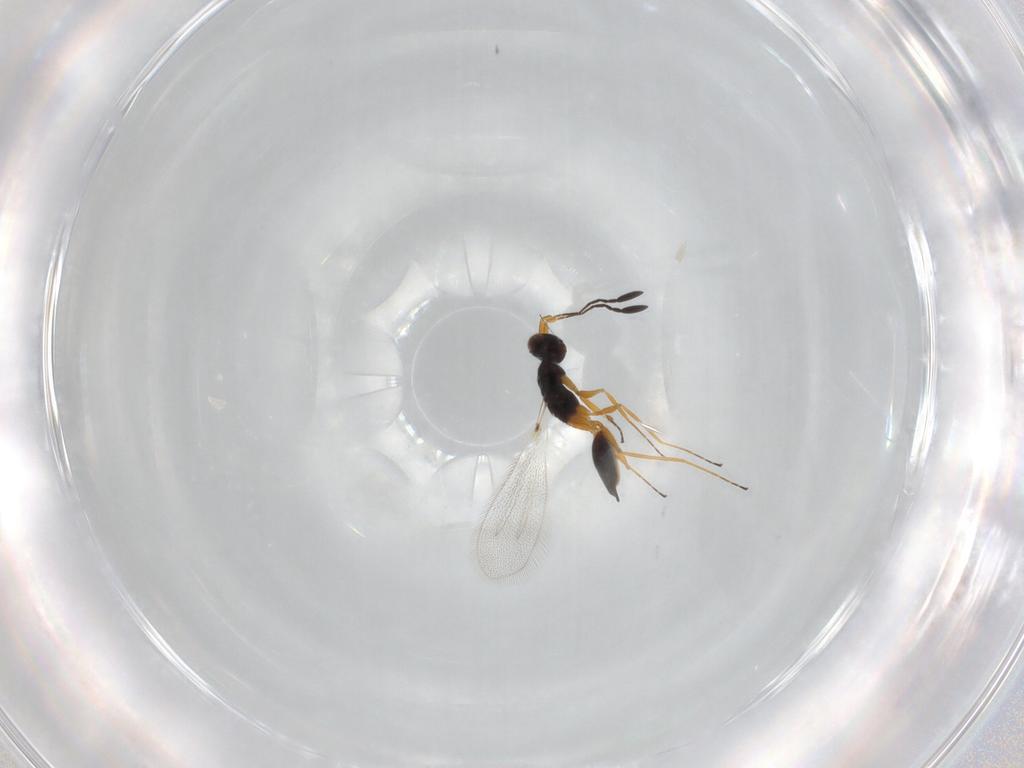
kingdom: Animalia
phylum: Arthropoda
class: Insecta
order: Hymenoptera
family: Mymaridae
